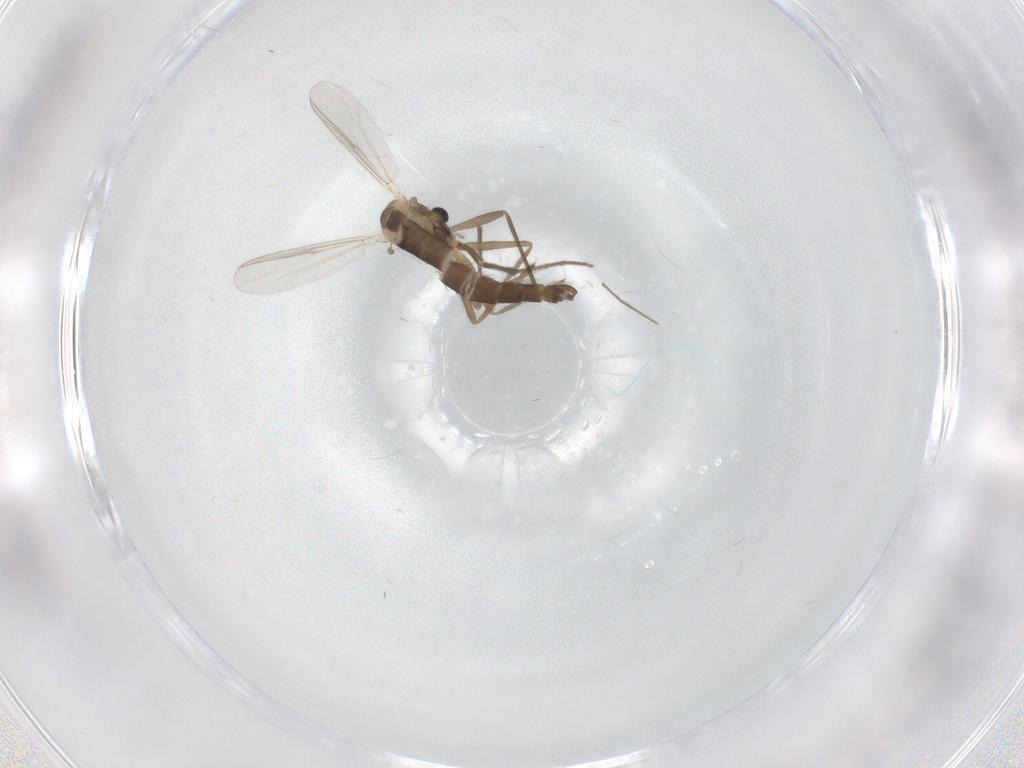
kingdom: Animalia
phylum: Arthropoda
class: Insecta
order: Diptera
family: Chironomidae
